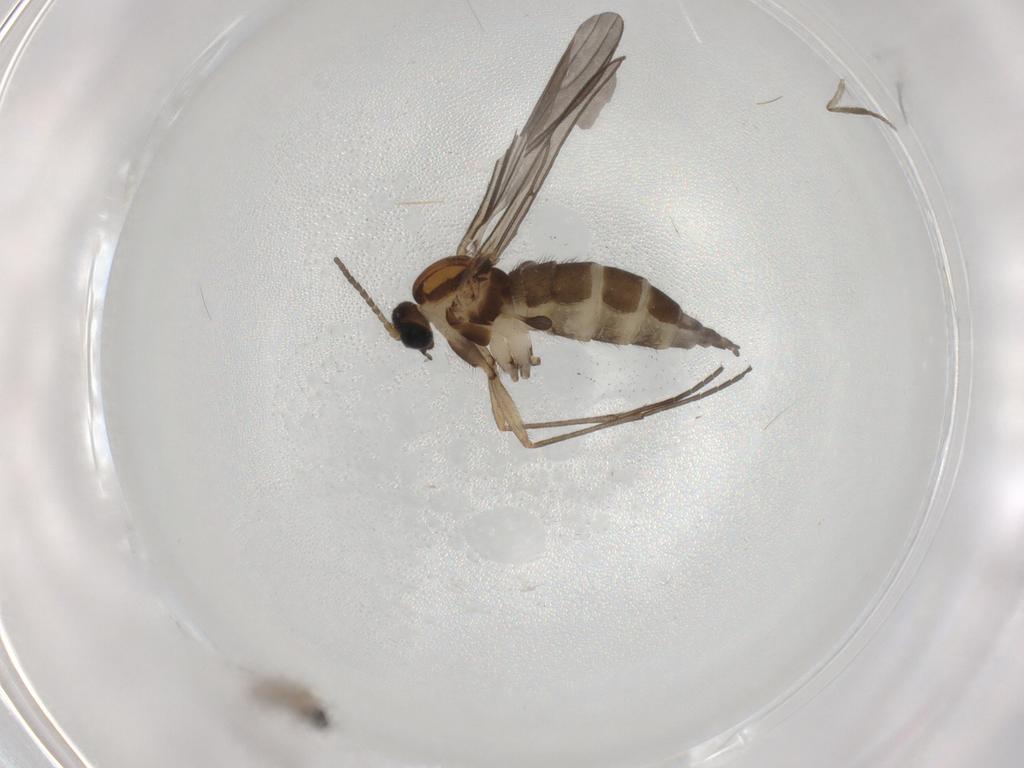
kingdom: Animalia
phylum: Arthropoda
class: Insecta
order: Diptera
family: Psychodidae
